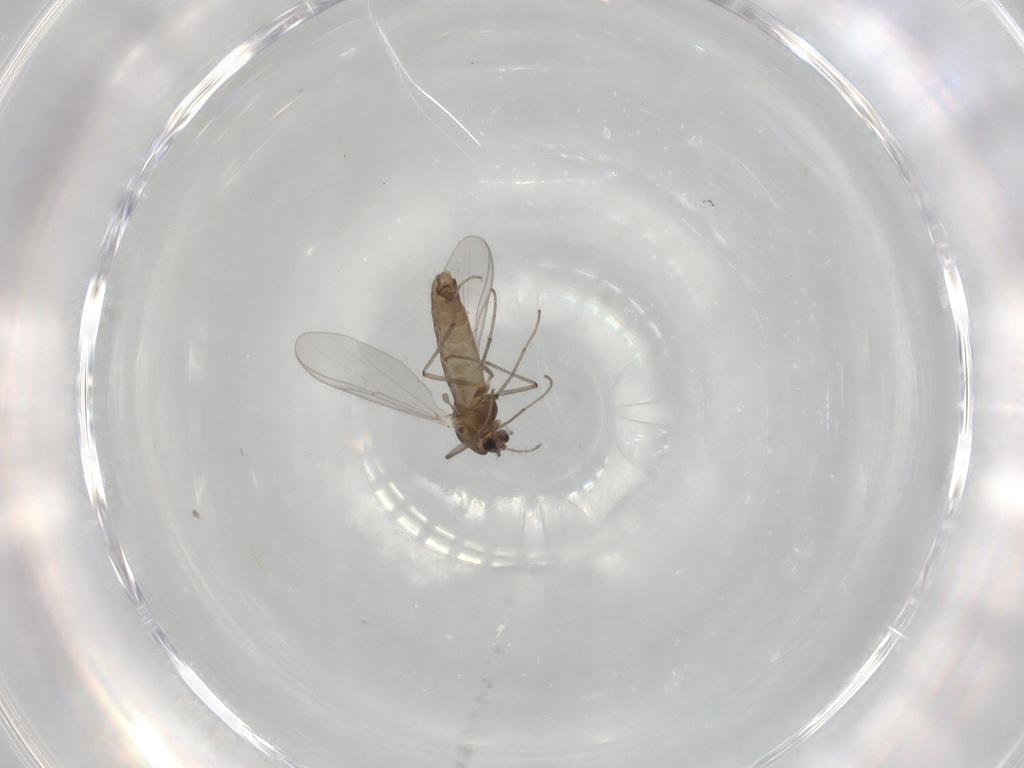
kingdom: Animalia
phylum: Arthropoda
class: Insecta
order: Diptera
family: Chironomidae
